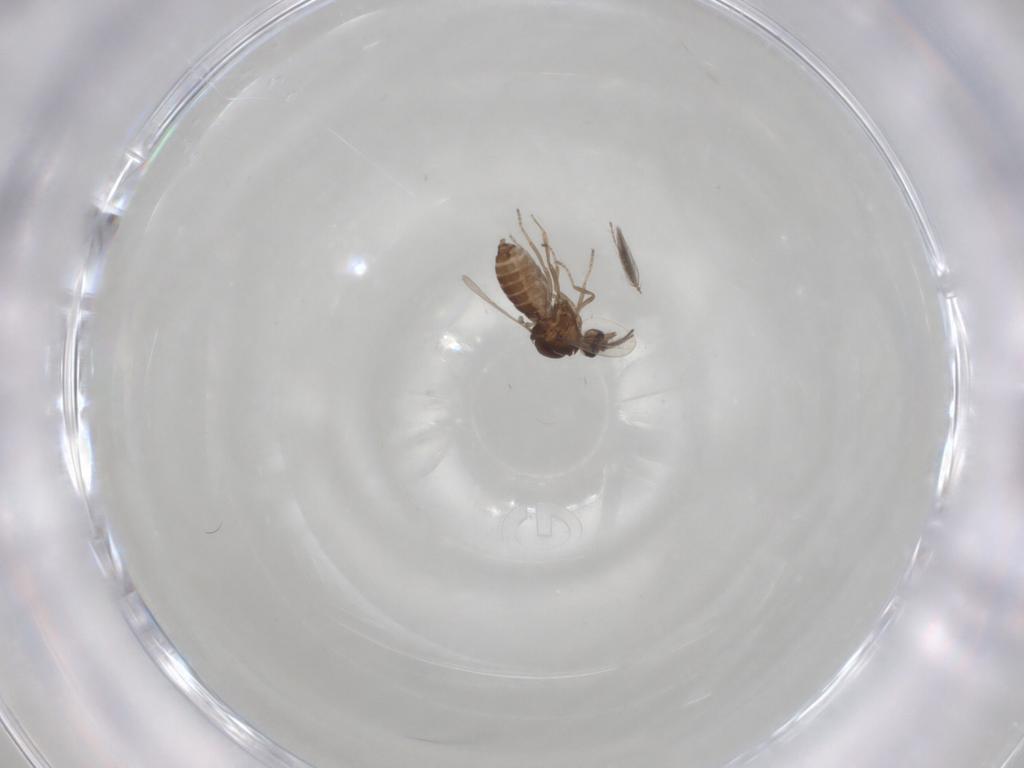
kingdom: Animalia
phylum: Arthropoda
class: Insecta
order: Diptera
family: Ceratopogonidae
